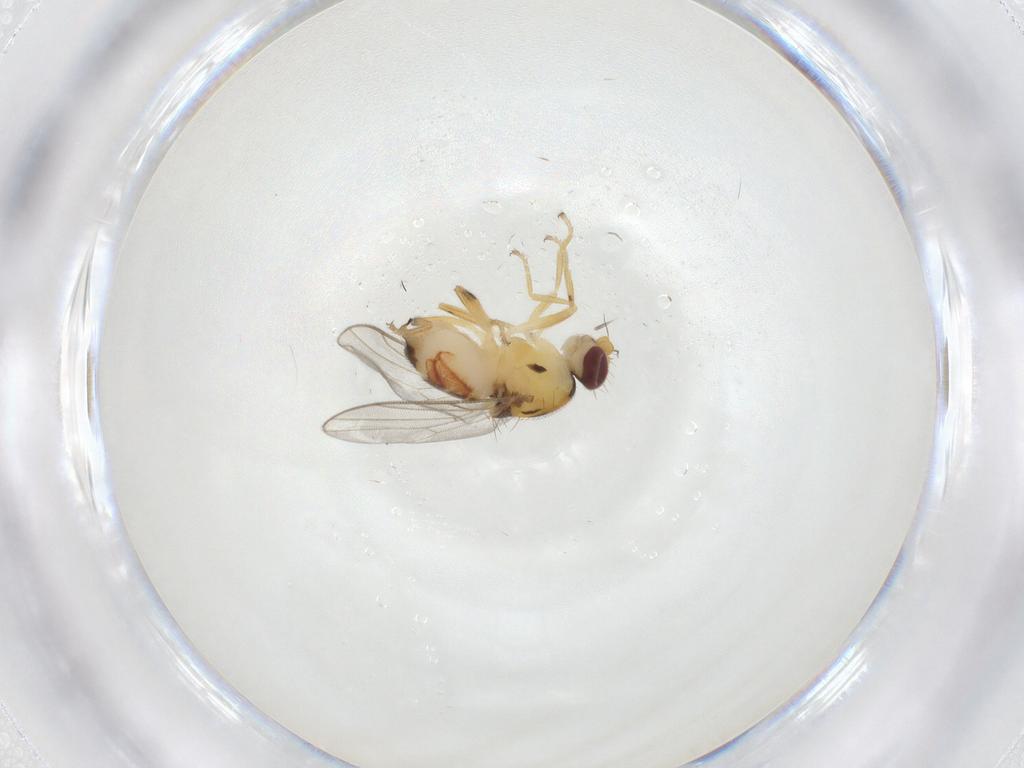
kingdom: Animalia
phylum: Arthropoda
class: Insecta
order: Diptera
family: Chloropidae
